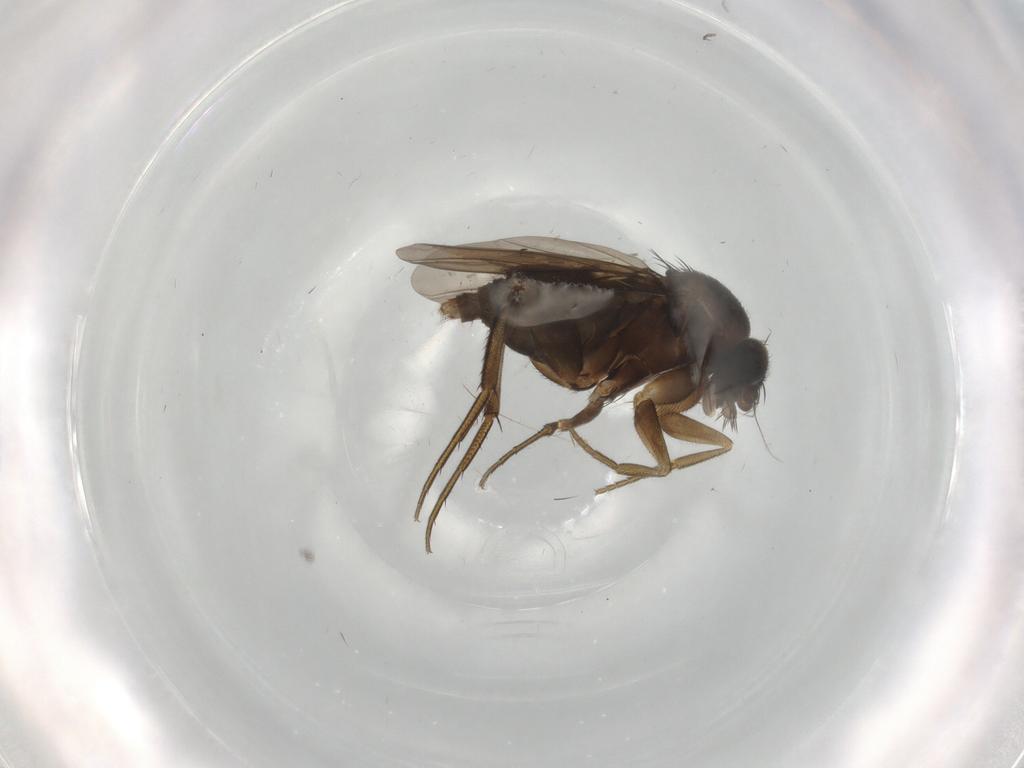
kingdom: Animalia
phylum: Arthropoda
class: Insecta
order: Diptera
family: Phoridae
